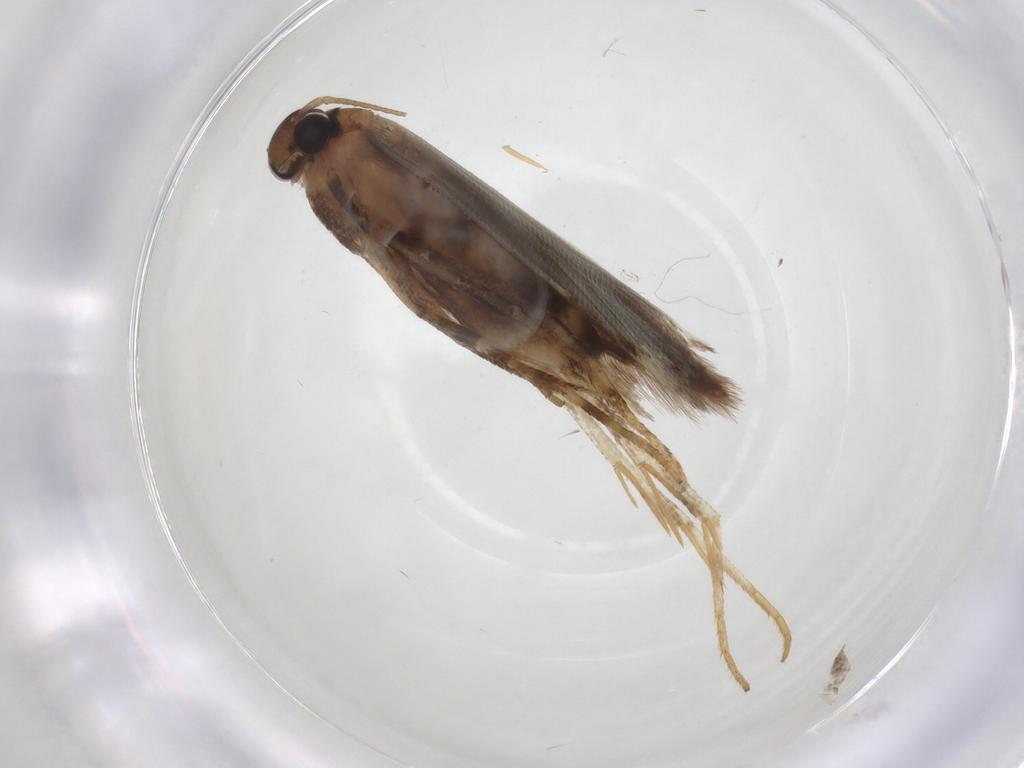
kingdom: Animalia
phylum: Arthropoda
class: Insecta
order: Lepidoptera
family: Gelechiidae
